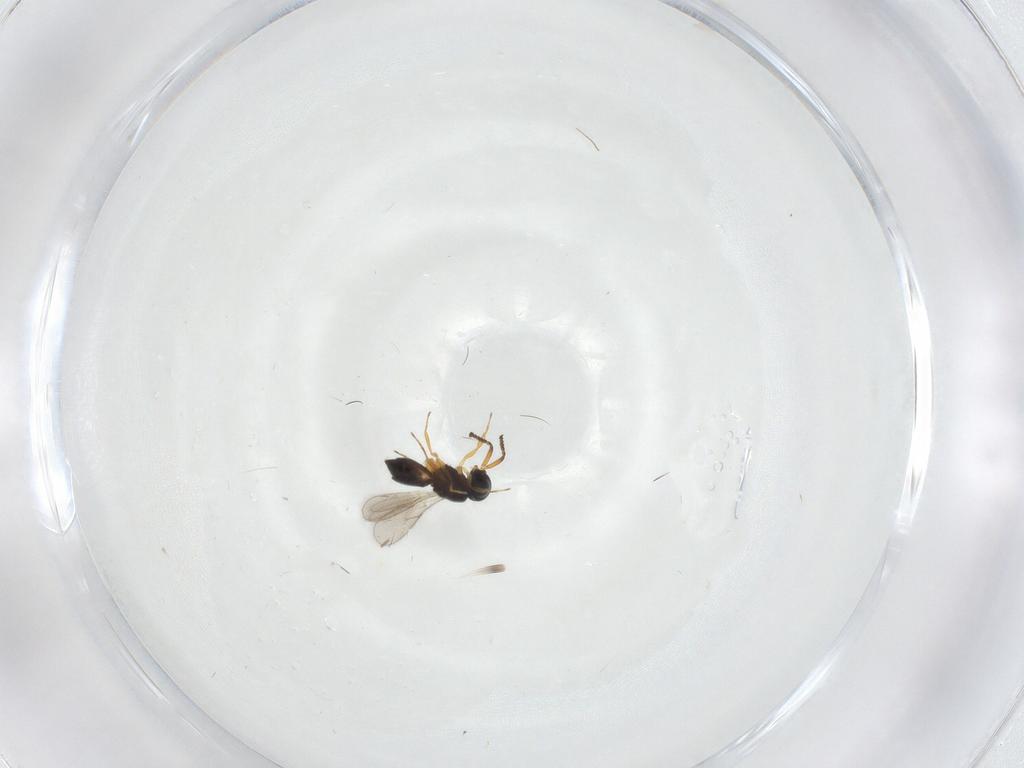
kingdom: Animalia
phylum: Arthropoda
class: Insecta
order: Hymenoptera
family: Scelionidae
